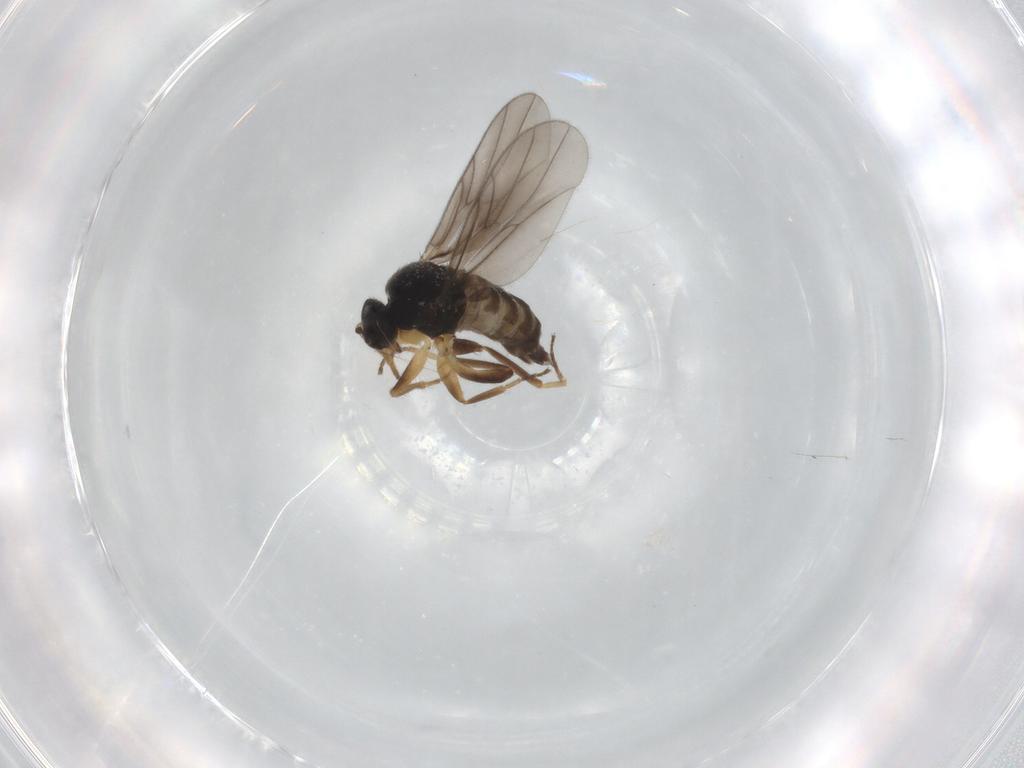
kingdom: Animalia
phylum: Arthropoda
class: Insecta
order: Diptera
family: Hybotidae
